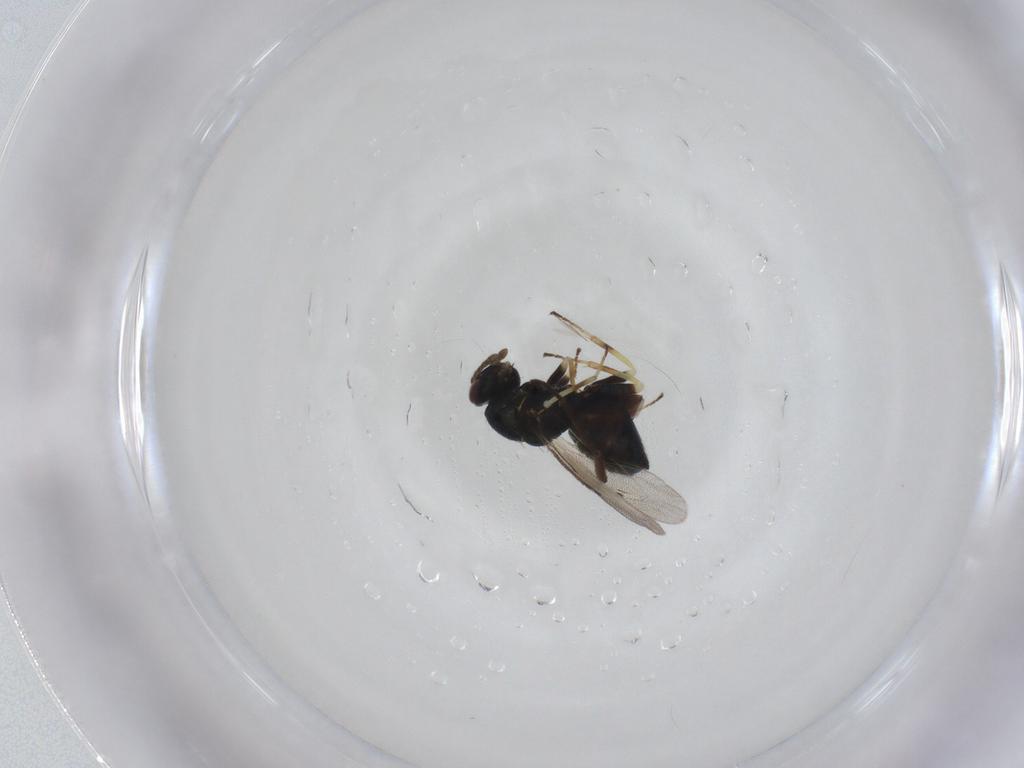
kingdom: Animalia
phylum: Arthropoda
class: Insecta
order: Hymenoptera
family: Eulophidae
